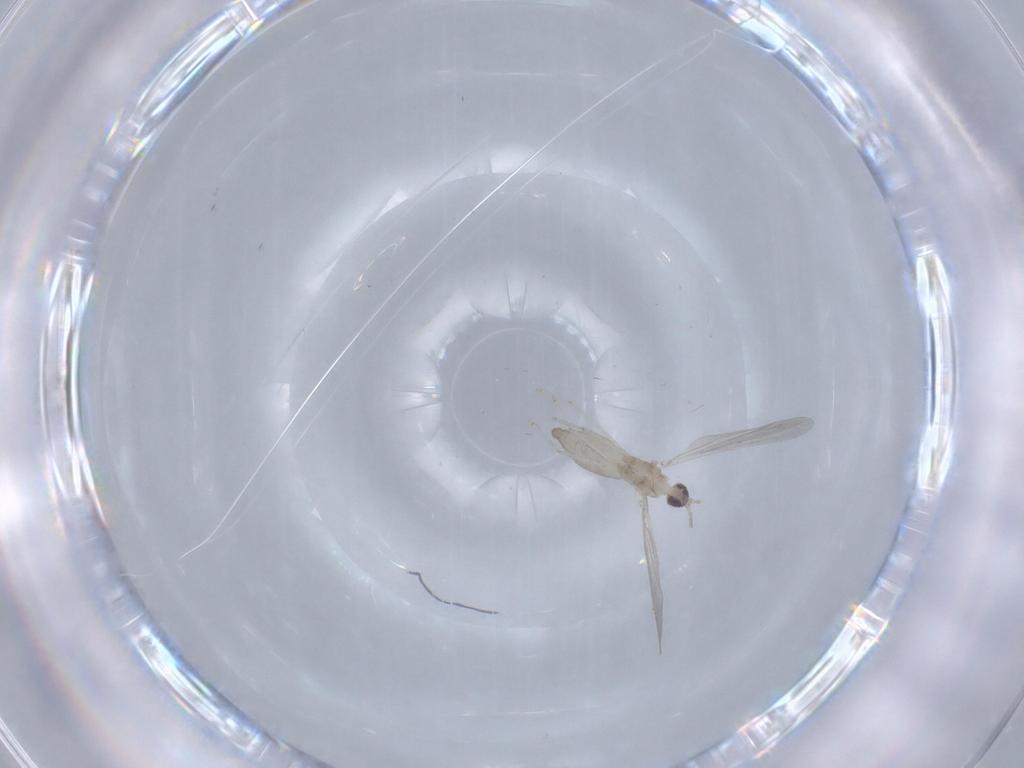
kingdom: Animalia
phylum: Arthropoda
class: Insecta
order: Diptera
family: Cecidomyiidae
